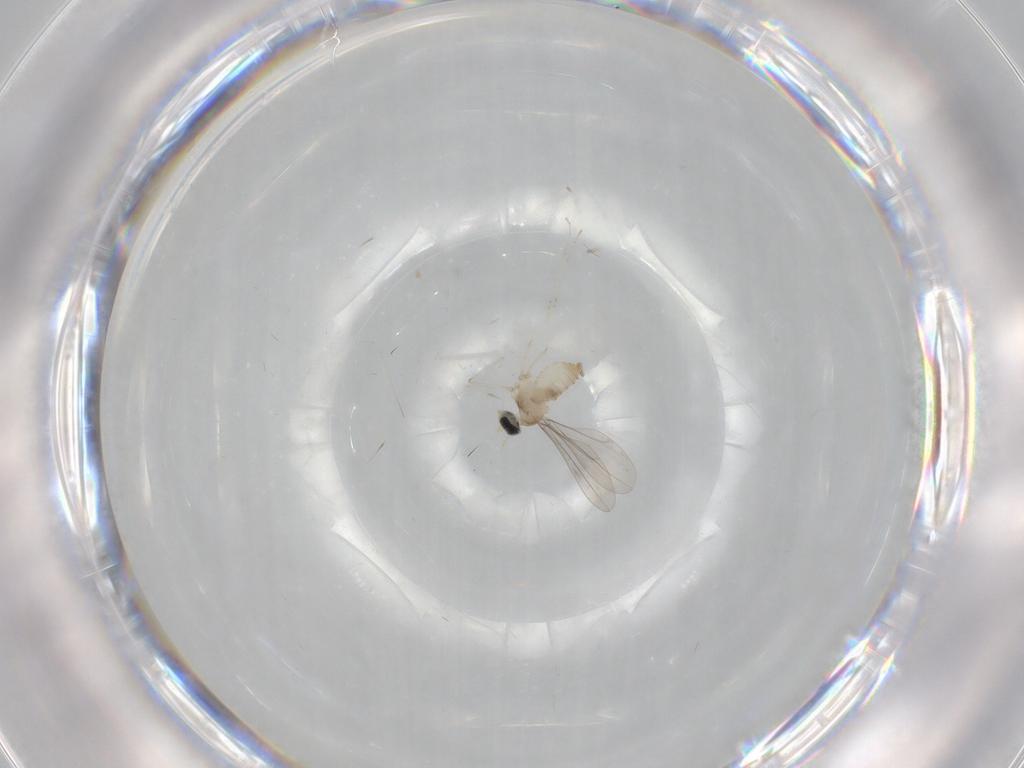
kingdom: Animalia
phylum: Arthropoda
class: Insecta
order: Diptera
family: Cecidomyiidae
